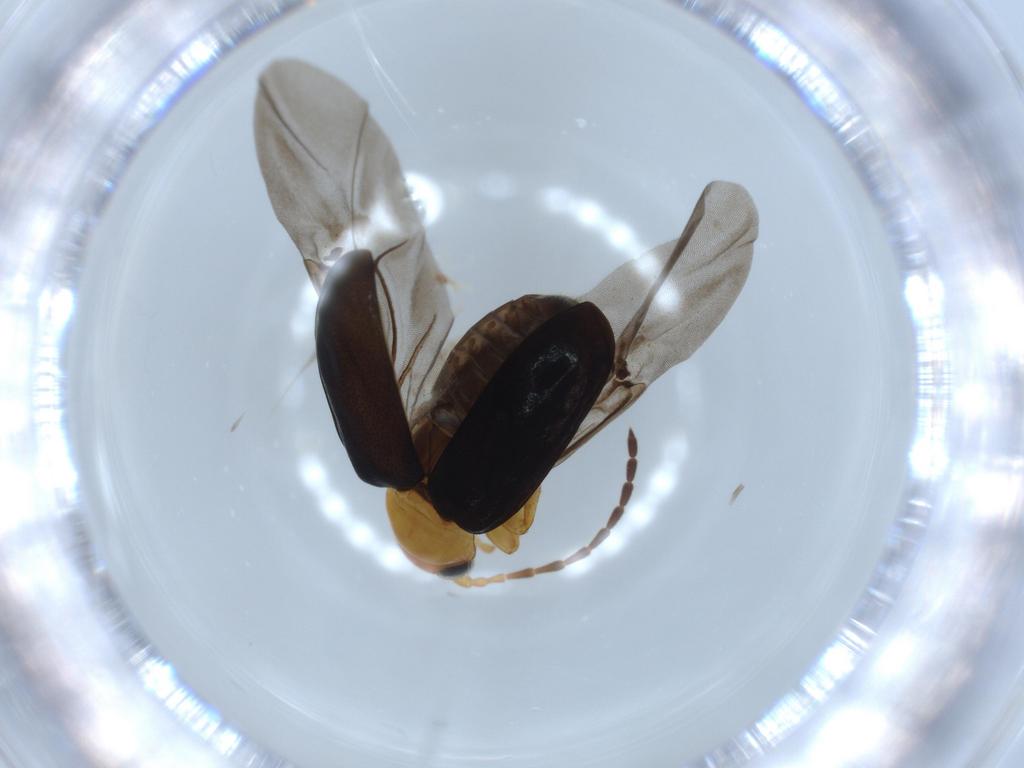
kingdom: Animalia
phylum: Arthropoda
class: Insecta
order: Coleoptera
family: Chrysomelidae
